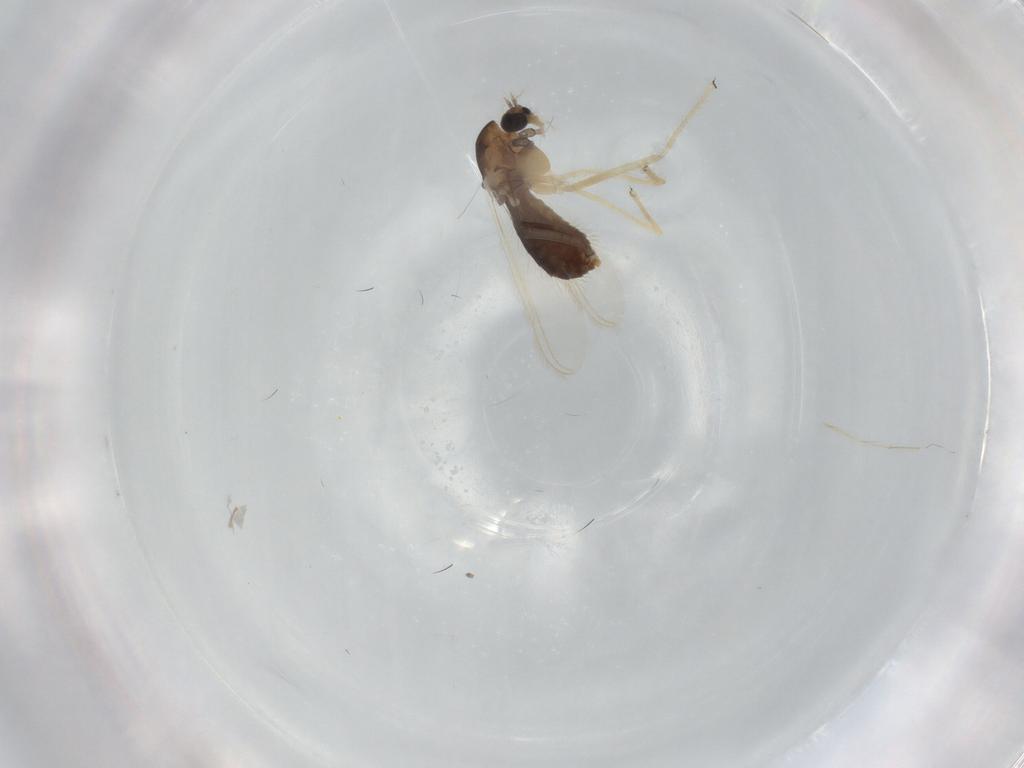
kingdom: Animalia
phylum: Arthropoda
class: Insecta
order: Diptera
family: Chironomidae
